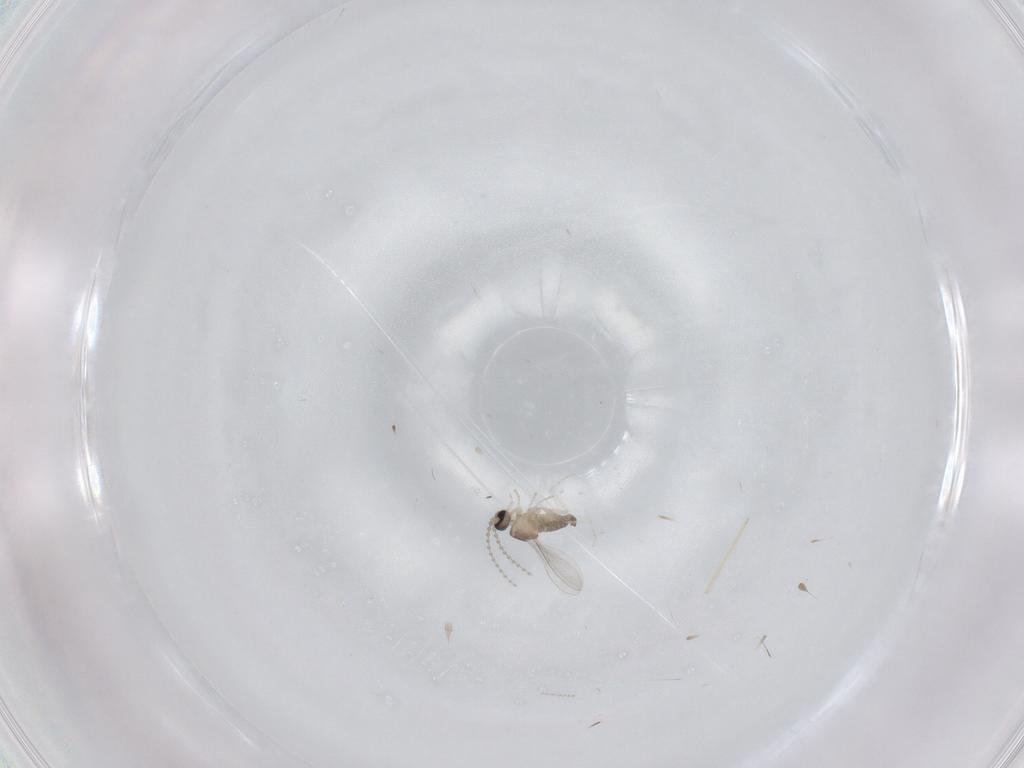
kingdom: Animalia
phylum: Arthropoda
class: Insecta
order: Diptera
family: Cecidomyiidae
